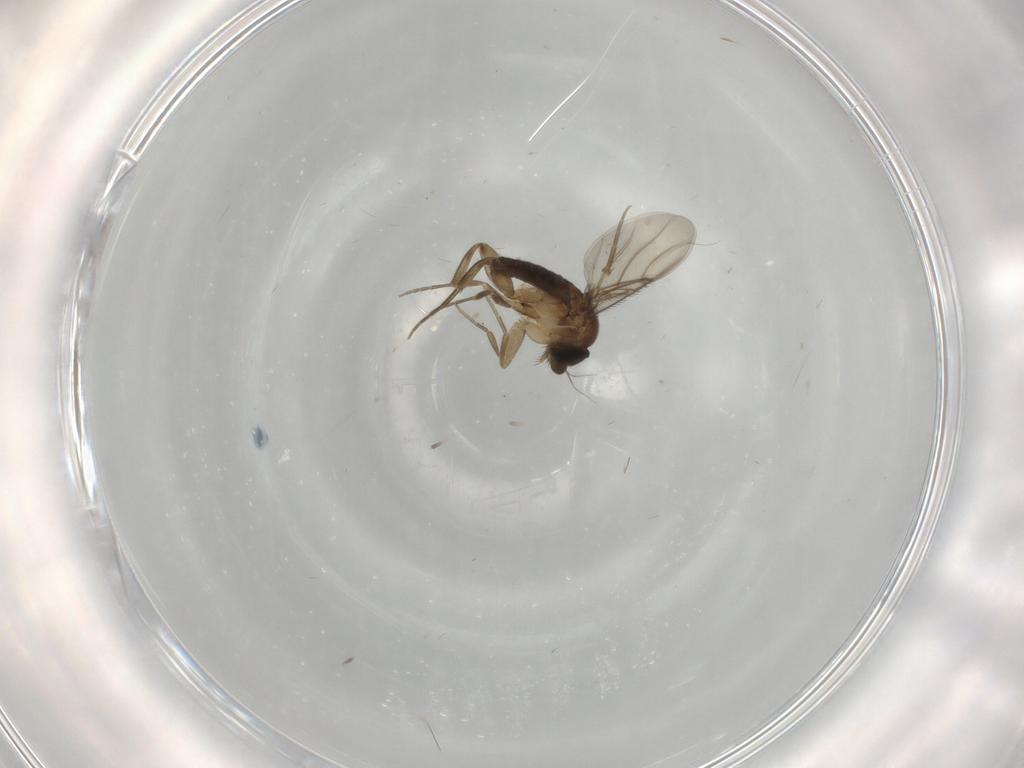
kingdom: Animalia
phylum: Arthropoda
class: Insecta
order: Diptera
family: Phoridae
